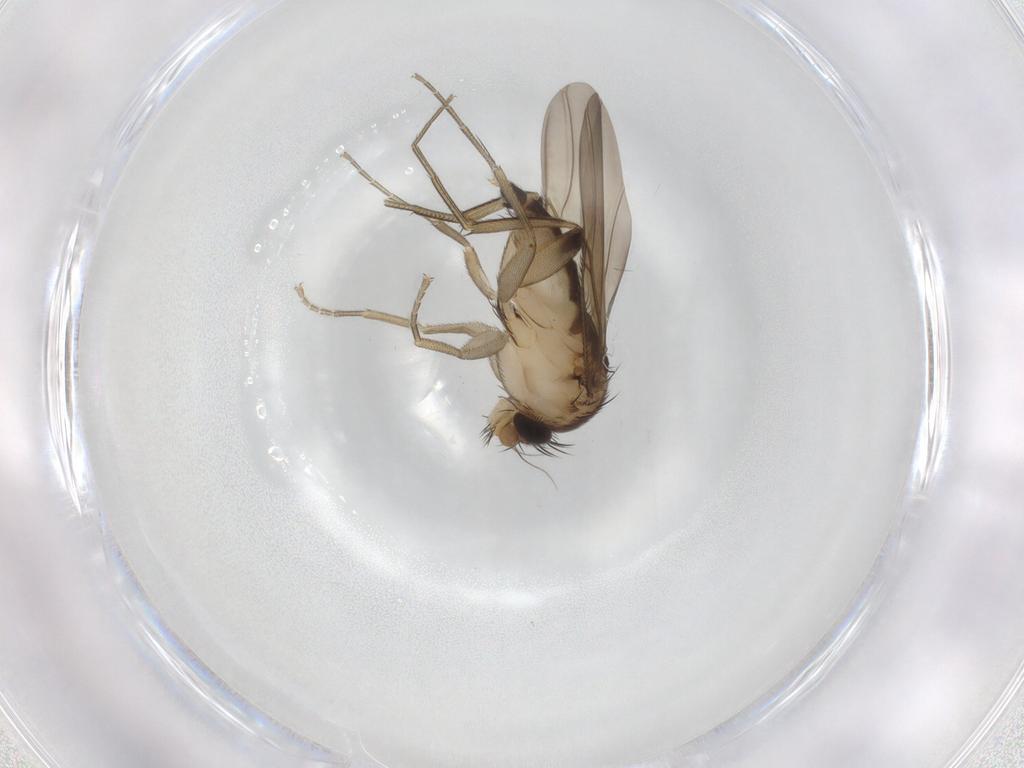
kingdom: Animalia
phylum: Arthropoda
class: Insecta
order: Diptera
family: Phoridae
